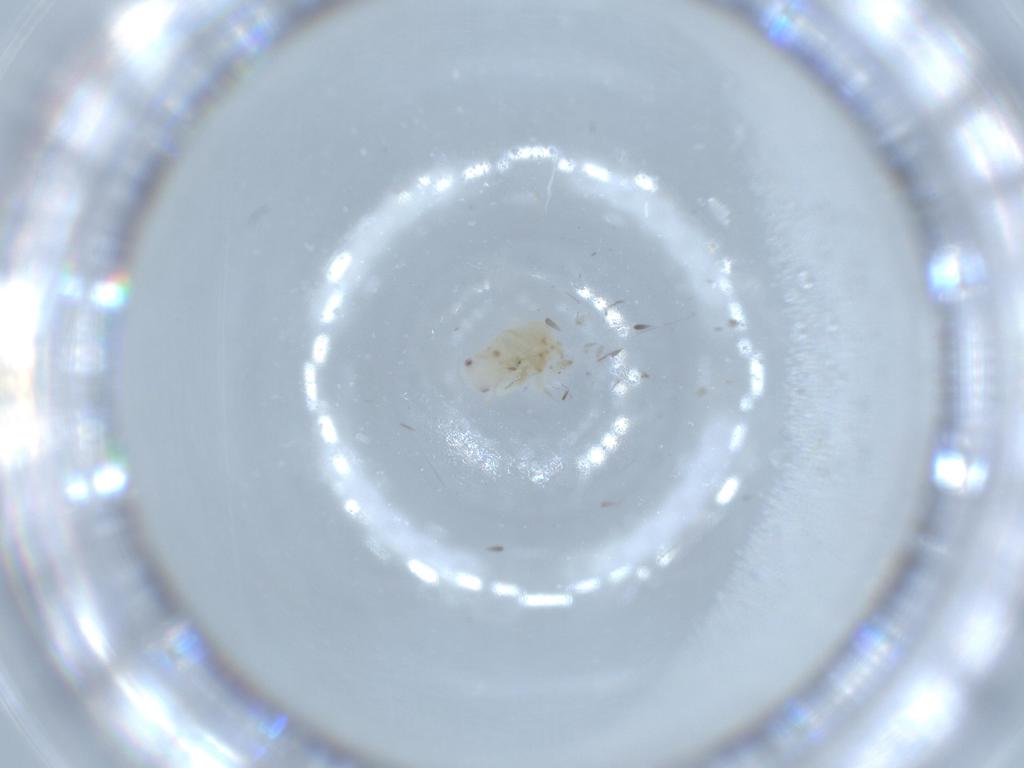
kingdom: Animalia
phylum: Arthropoda
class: Insecta
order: Hemiptera
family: Flatidae
